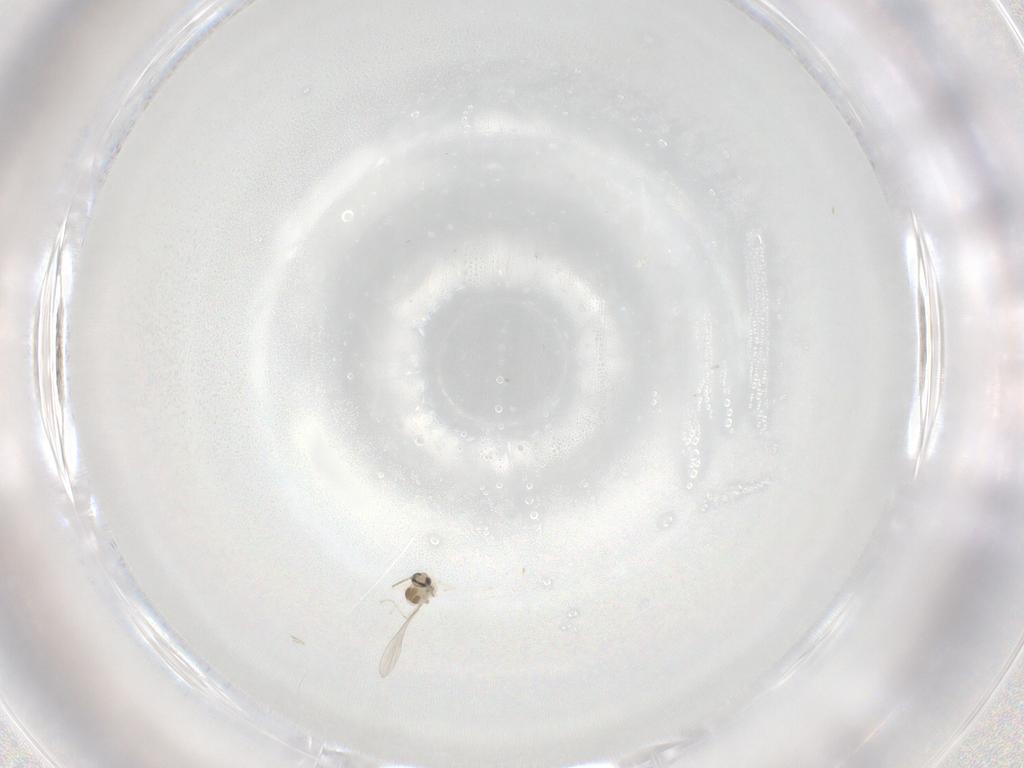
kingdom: Animalia
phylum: Arthropoda
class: Insecta
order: Diptera
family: Cecidomyiidae
